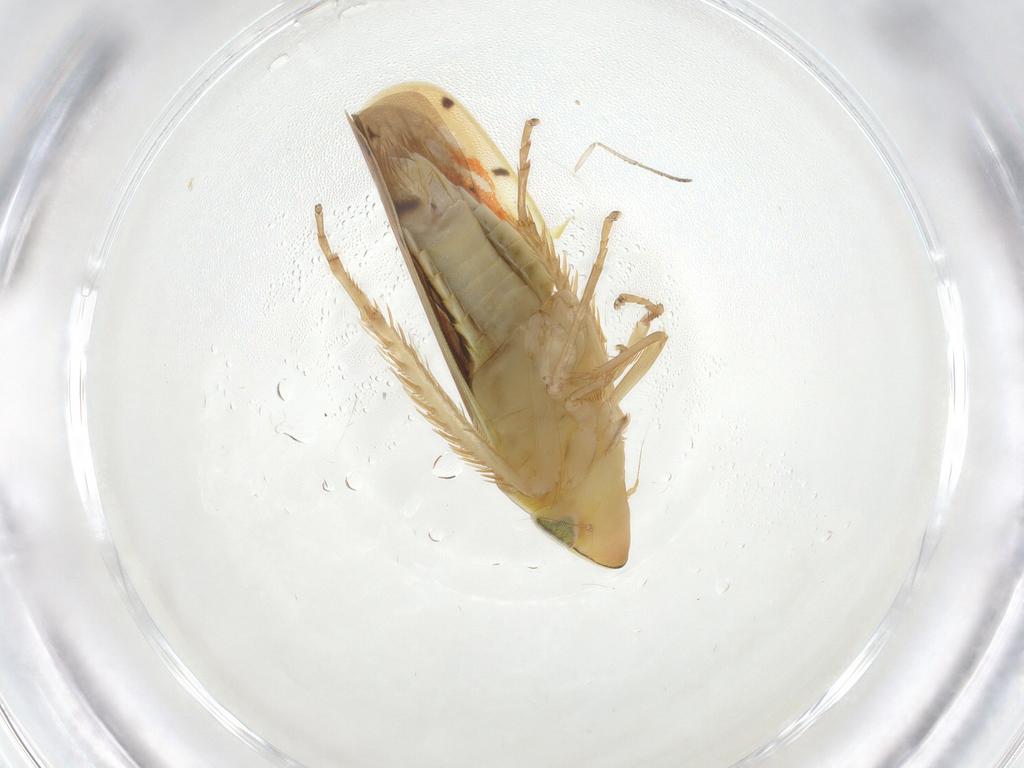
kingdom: Animalia
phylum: Arthropoda
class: Insecta
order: Hemiptera
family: Cicadellidae
